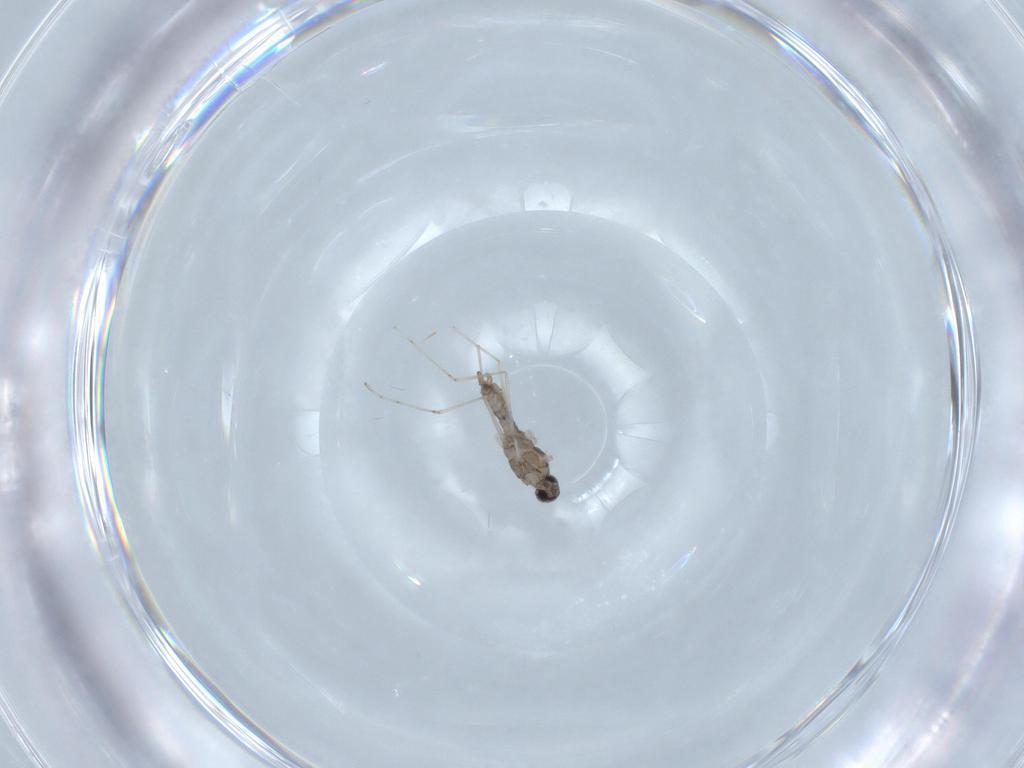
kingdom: Animalia
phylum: Arthropoda
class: Insecta
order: Diptera
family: Cecidomyiidae
